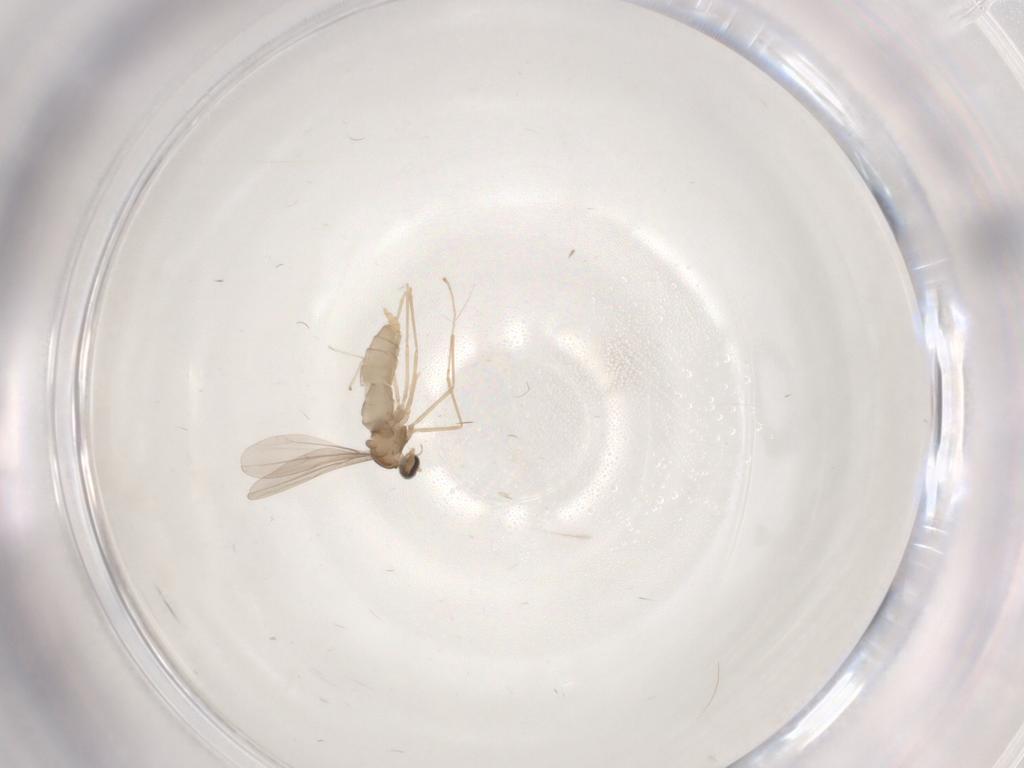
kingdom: Animalia
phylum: Arthropoda
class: Insecta
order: Diptera
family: Cecidomyiidae
